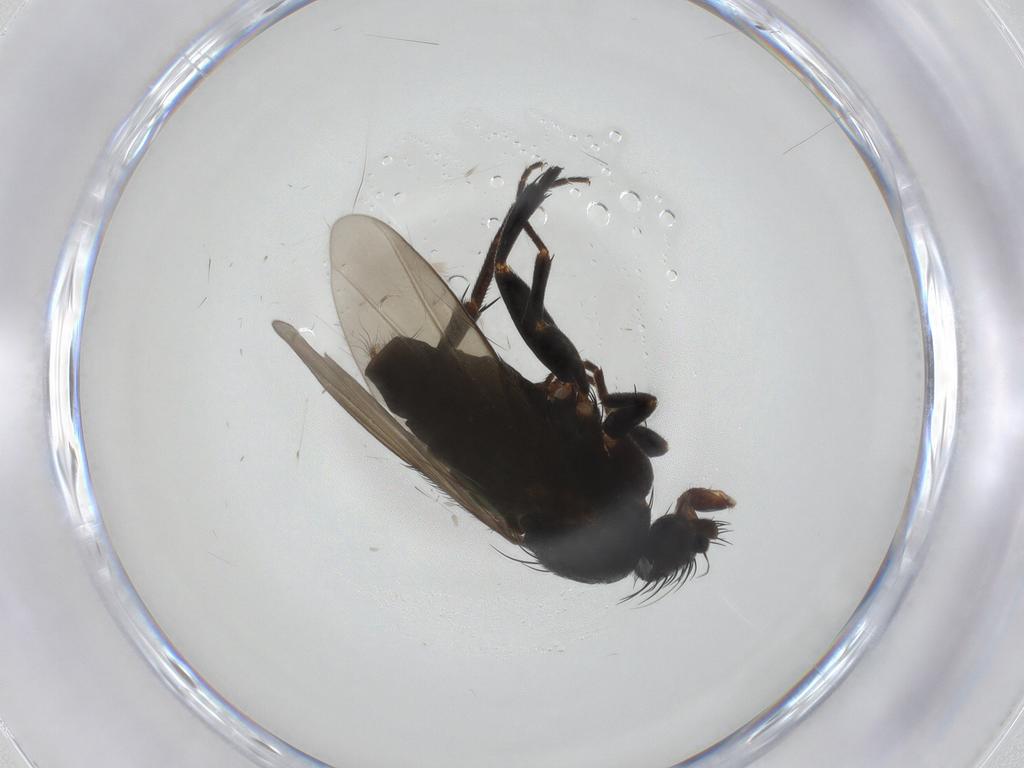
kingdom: Animalia
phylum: Arthropoda
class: Insecta
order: Diptera
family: Phoridae
